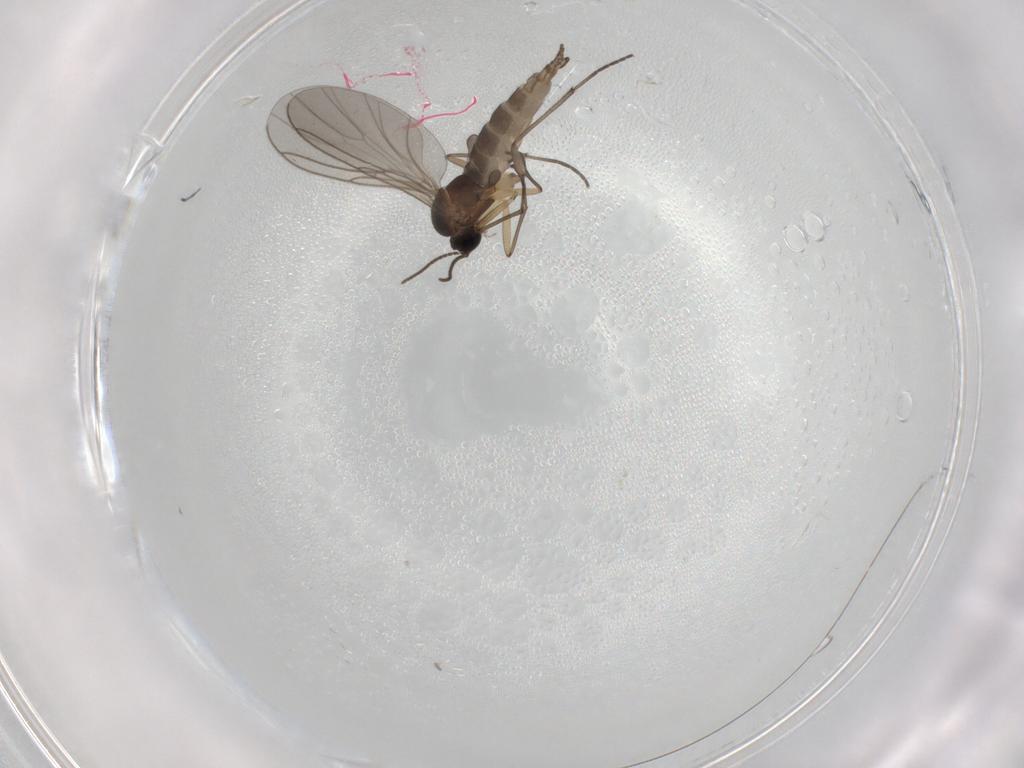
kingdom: Animalia
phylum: Arthropoda
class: Insecta
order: Diptera
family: Sciaridae
